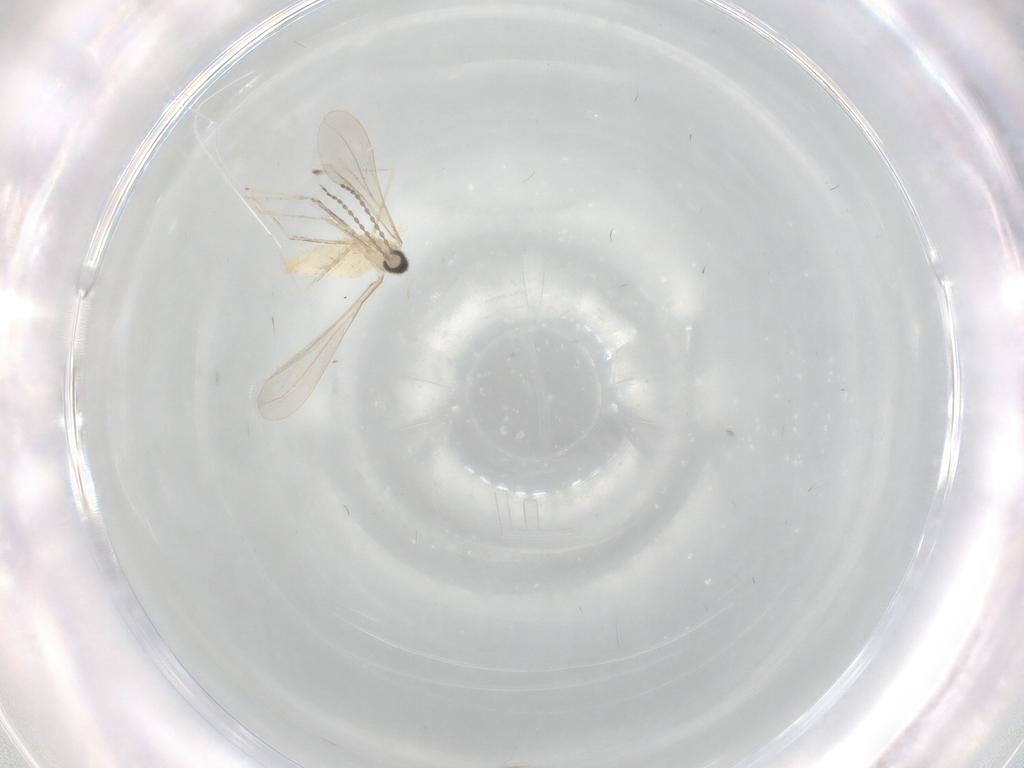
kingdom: Animalia
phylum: Arthropoda
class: Insecta
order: Diptera
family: Cecidomyiidae
